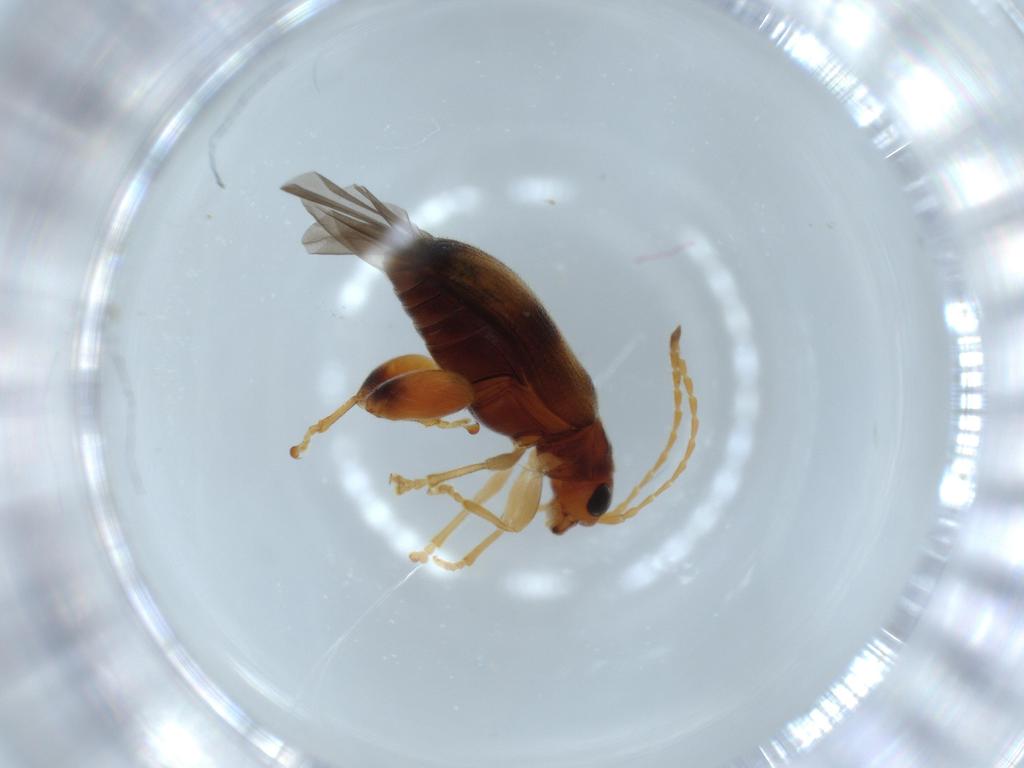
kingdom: Animalia
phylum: Arthropoda
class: Insecta
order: Coleoptera
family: Chrysomelidae
